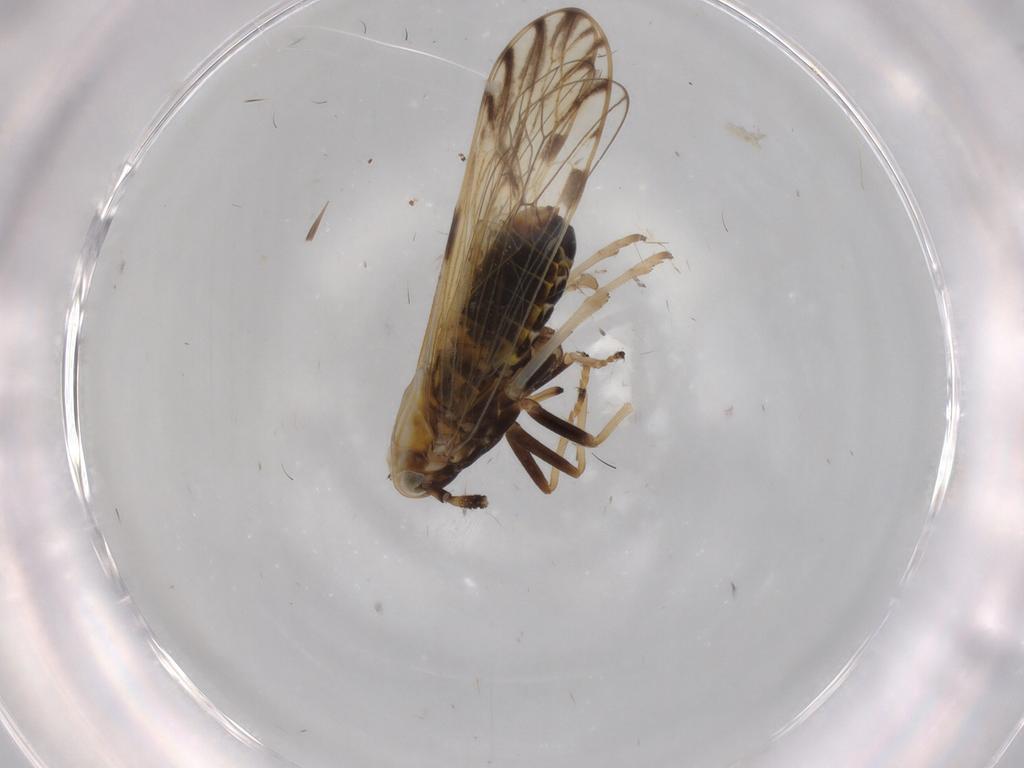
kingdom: Animalia
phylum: Arthropoda
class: Insecta
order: Hemiptera
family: Delphacidae
